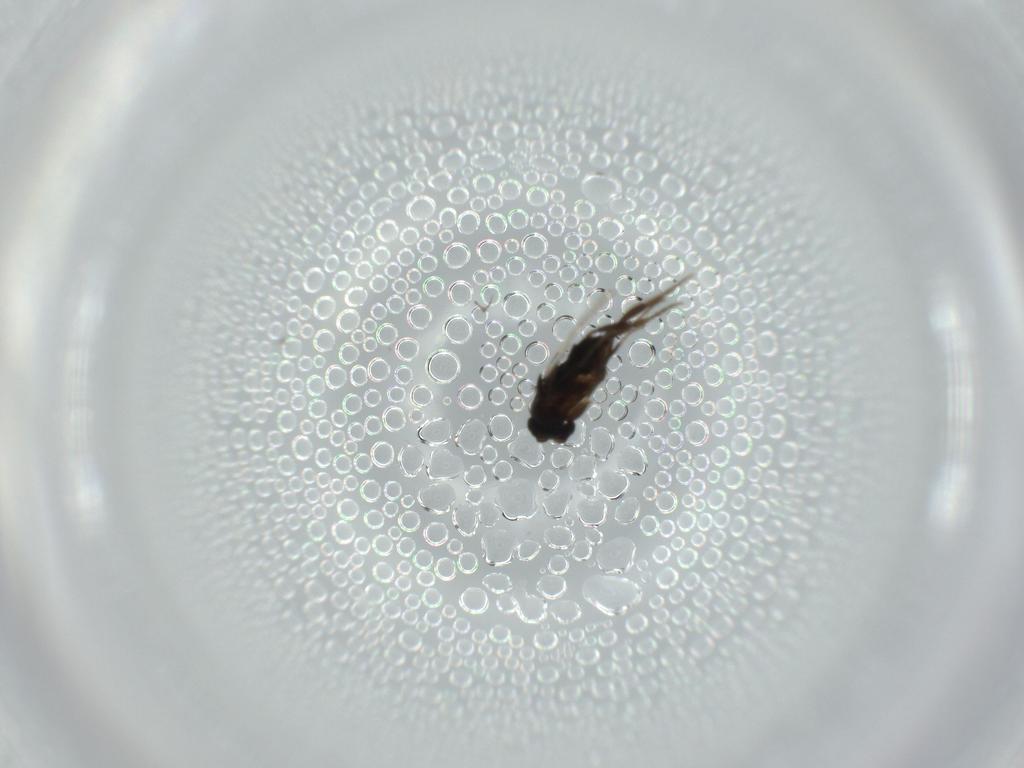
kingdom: Animalia
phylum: Arthropoda
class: Insecta
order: Diptera
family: Phoridae
